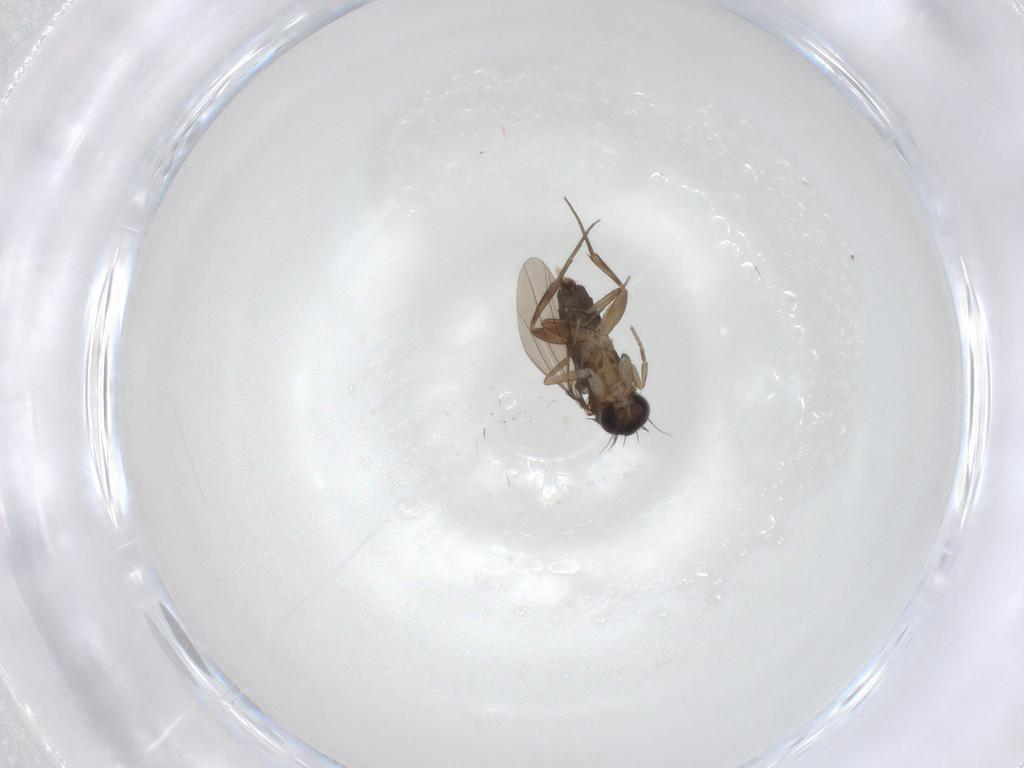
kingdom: Animalia
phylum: Arthropoda
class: Insecta
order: Diptera
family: Phoridae
